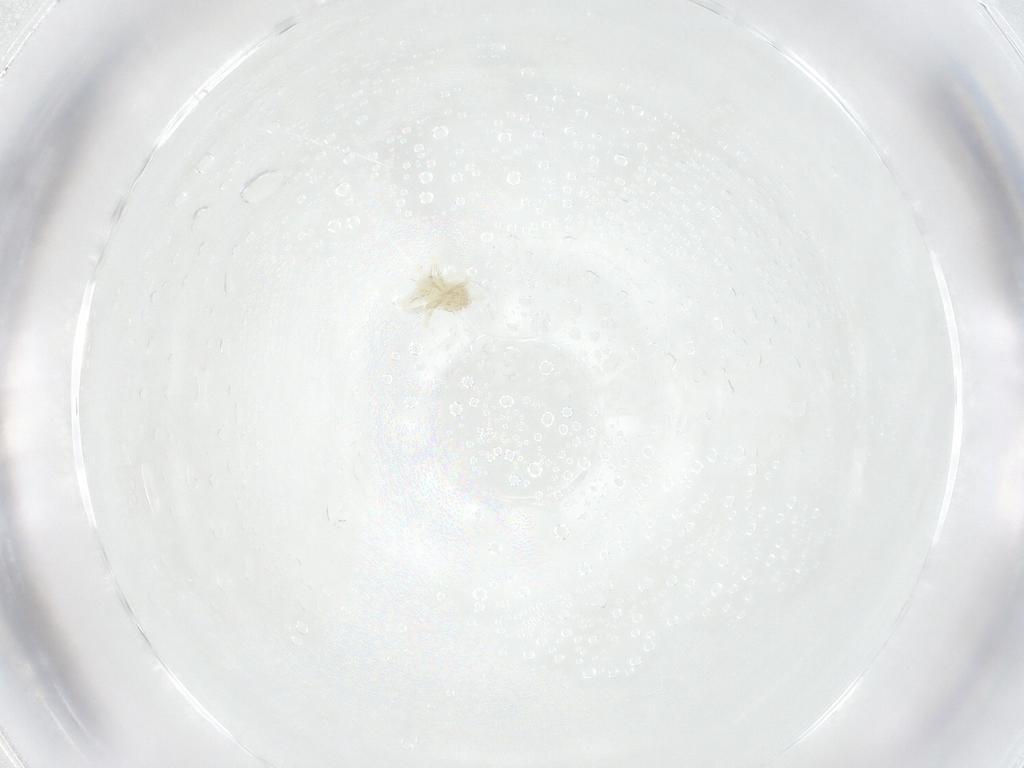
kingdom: Animalia
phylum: Arthropoda
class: Arachnida
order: Trombidiformes
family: Anystidae
